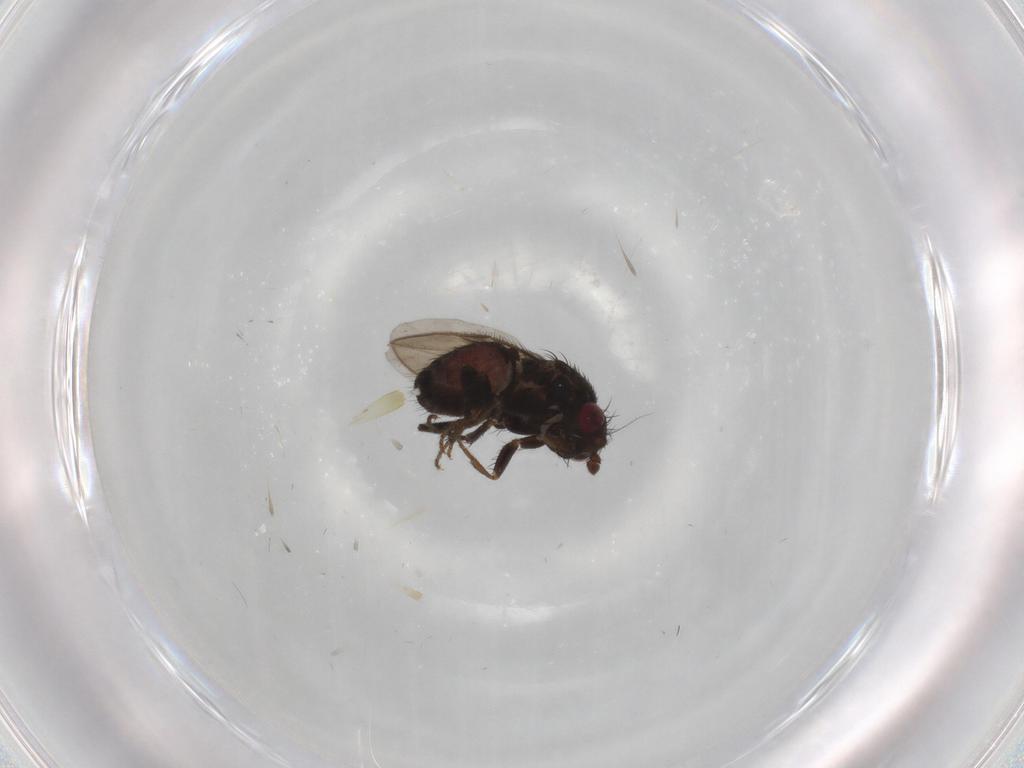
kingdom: Animalia
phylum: Arthropoda
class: Insecta
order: Diptera
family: Sphaeroceridae
